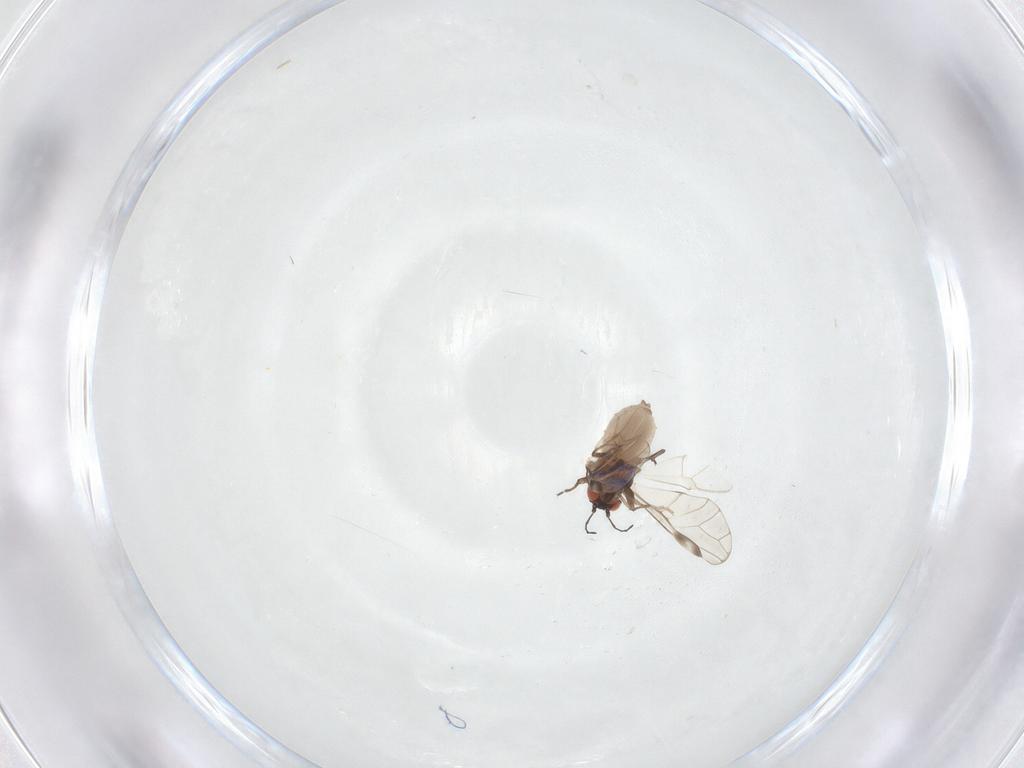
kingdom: Animalia
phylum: Arthropoda
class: Insecta
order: Hemiptera
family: Aphididae
